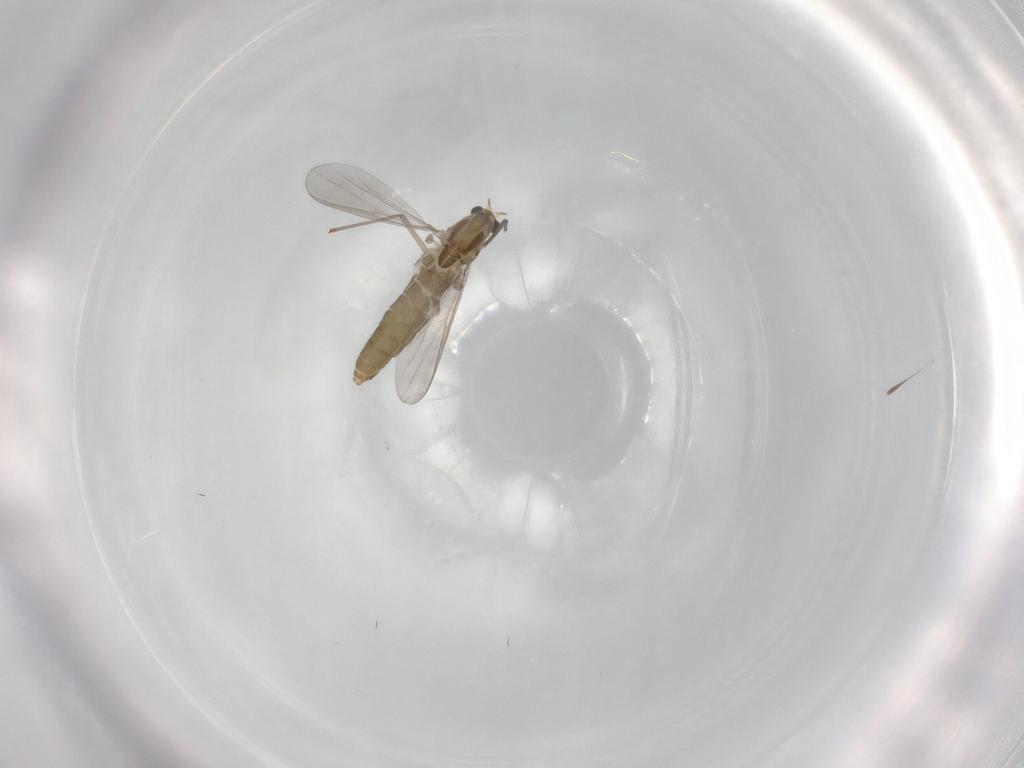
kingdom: Animalia
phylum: Arthropoda
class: Insecta
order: Diptera
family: Chironomidae
